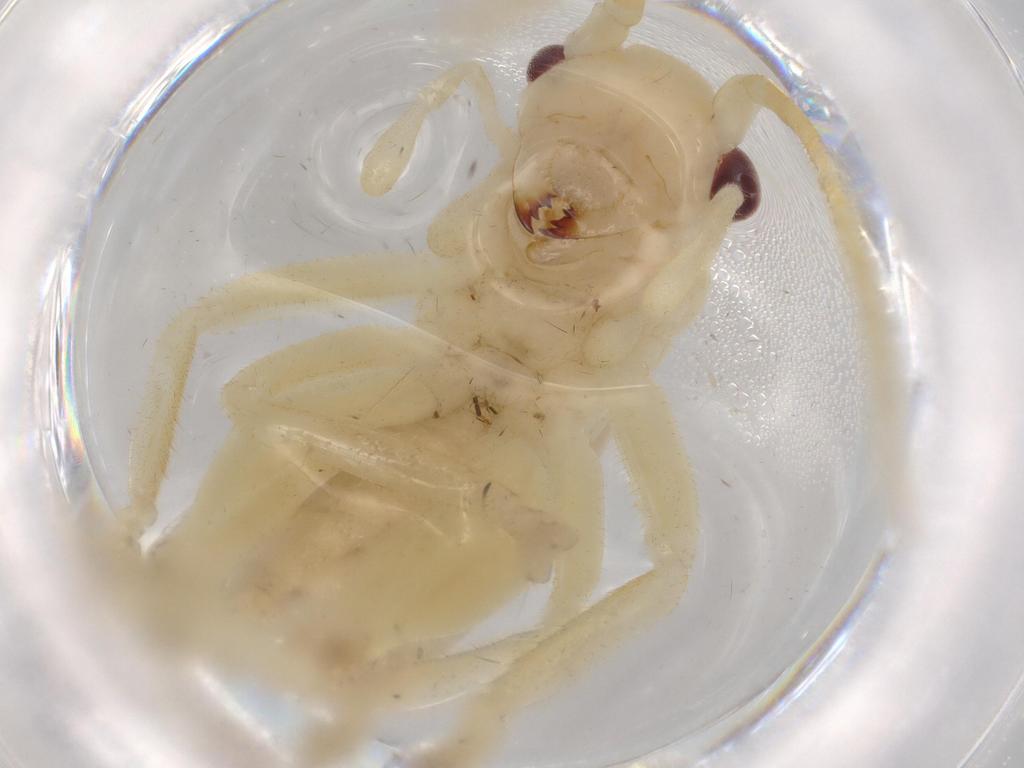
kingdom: Animalia
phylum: Arthropoda
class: Insecta
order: Orthoptera
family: Gryllacrididae
